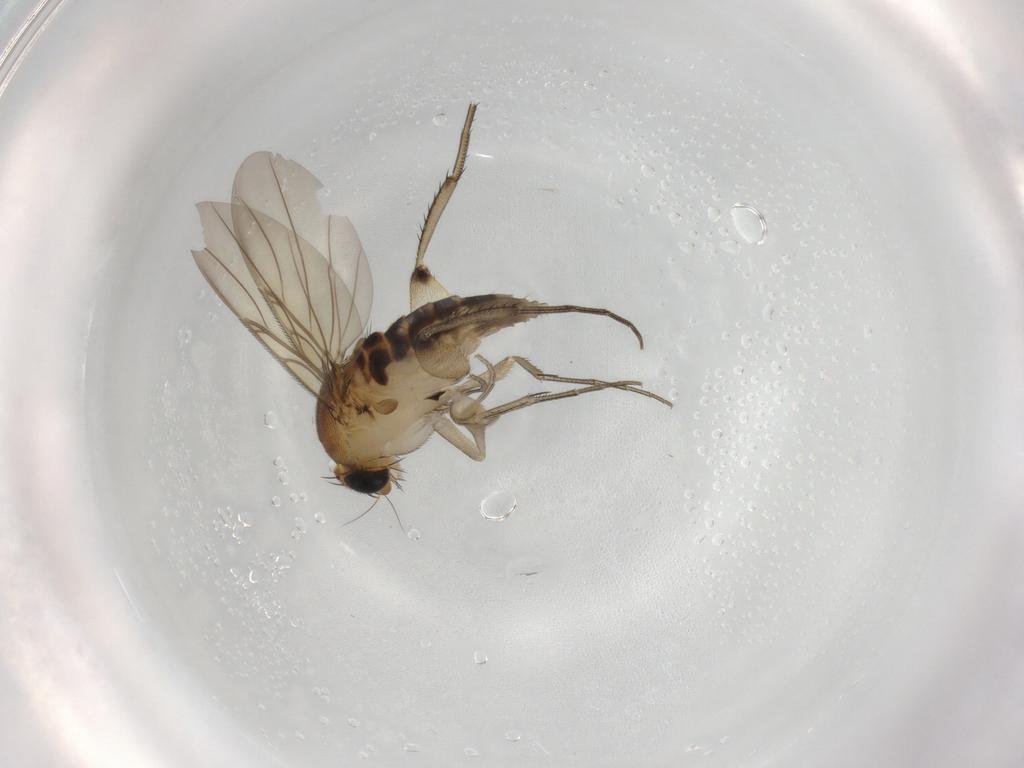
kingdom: Animalia
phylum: Arthropoda
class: Insecta
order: Diptera
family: Phoridae
